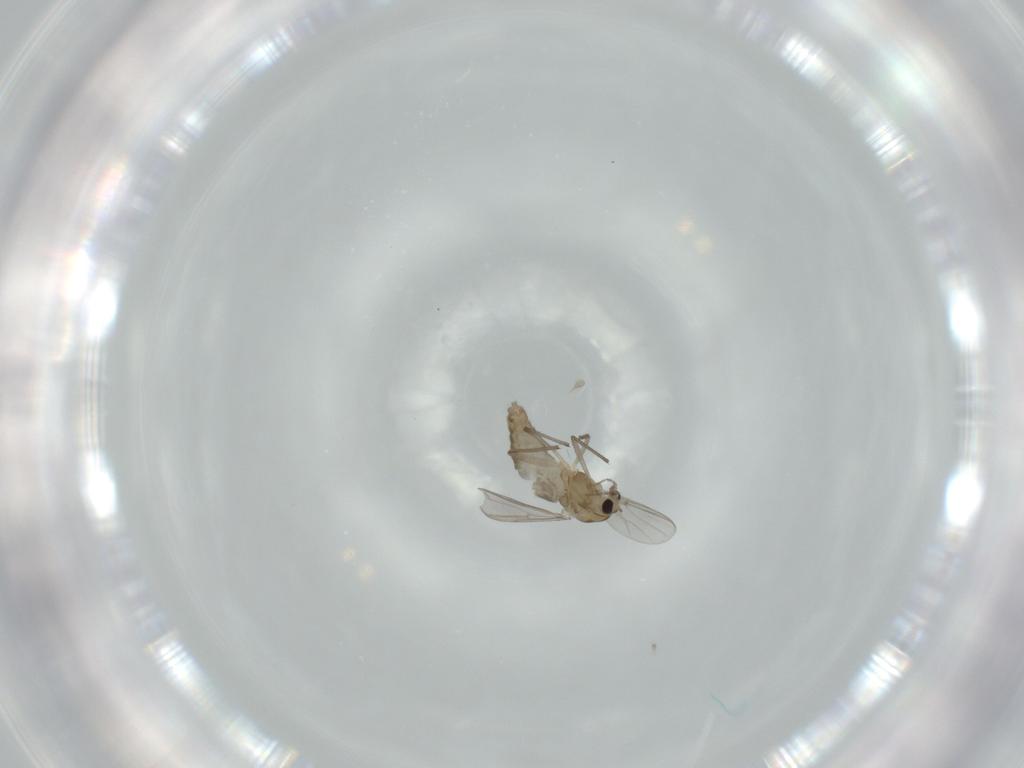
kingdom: Animalia
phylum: Arthropoda
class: Insecta
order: Diptera
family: Chironomidae
